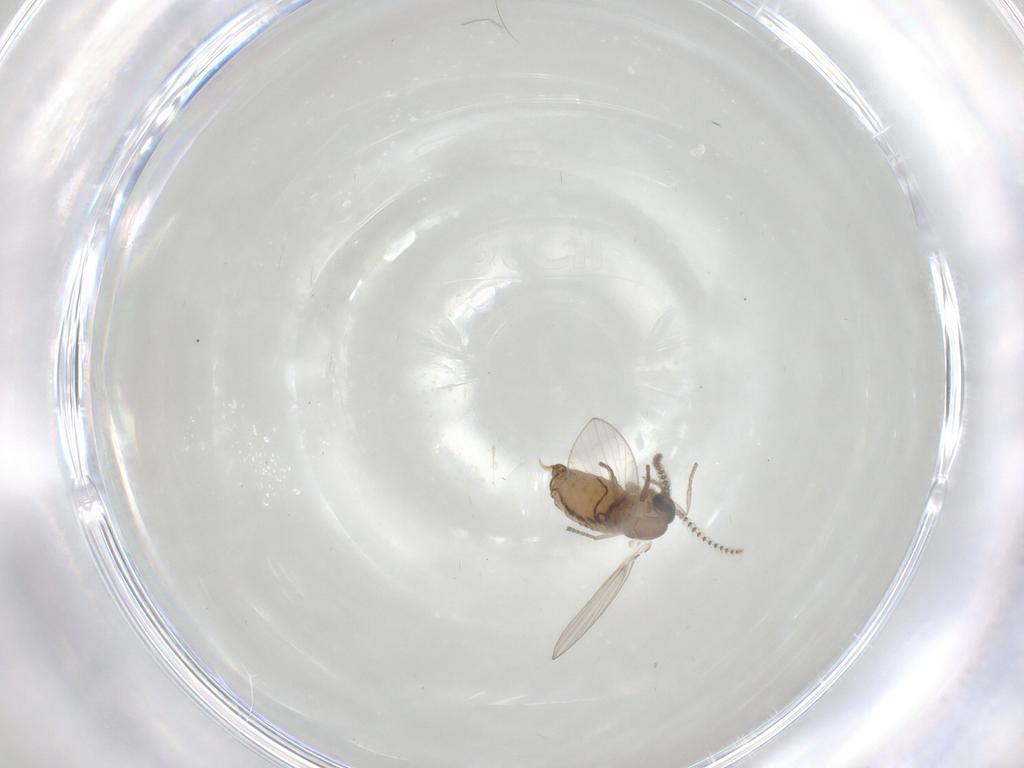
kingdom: Animalia
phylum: Arthropoda
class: Insecta
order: Diptera
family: Psychodidae
